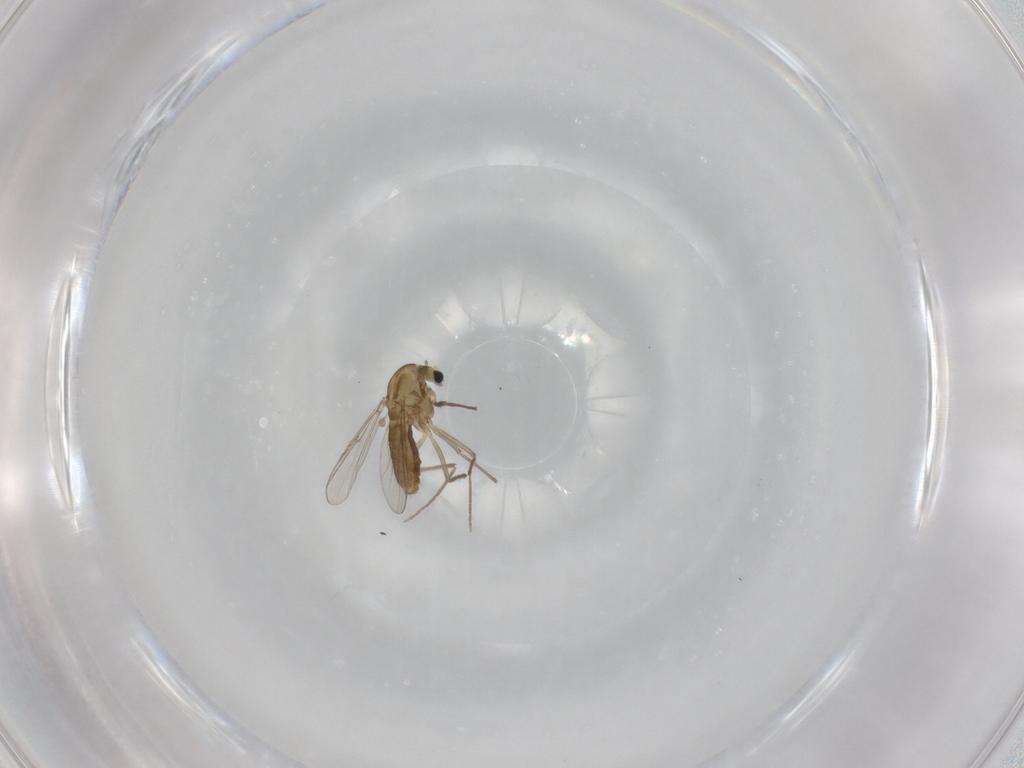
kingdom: Animalia
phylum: Arthropoda
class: Insecta
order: Diptera
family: Chironomidae
